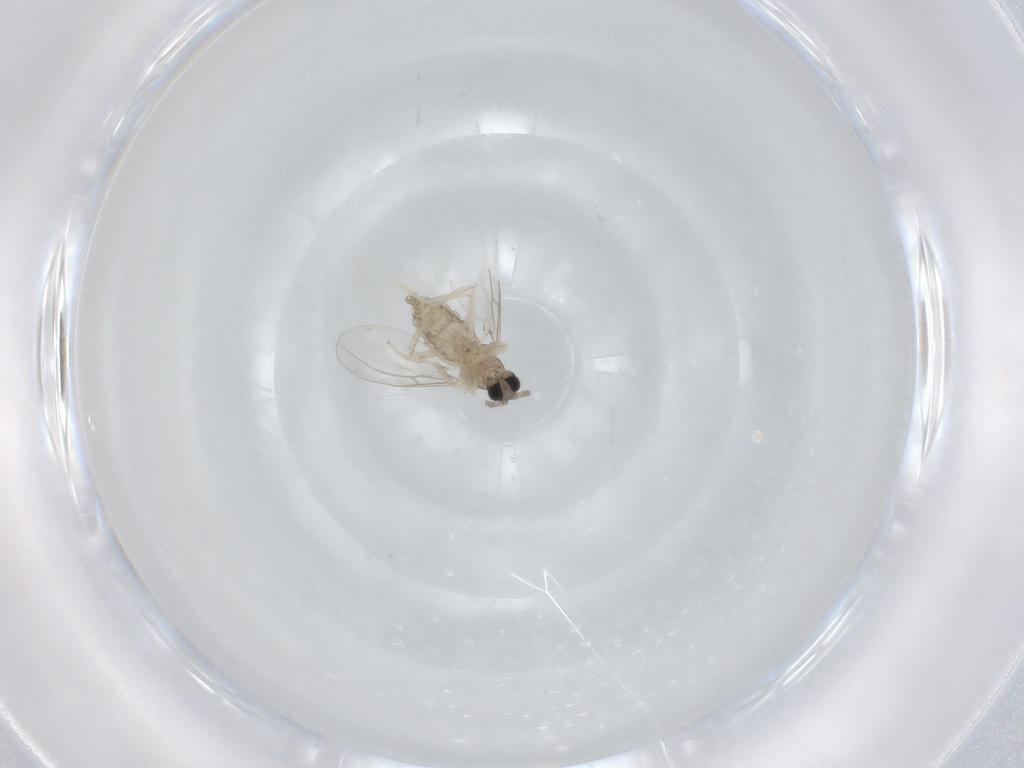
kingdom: Animalia
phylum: Arthropoda
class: Insecta
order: Diptera
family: Cecidomyiidae
